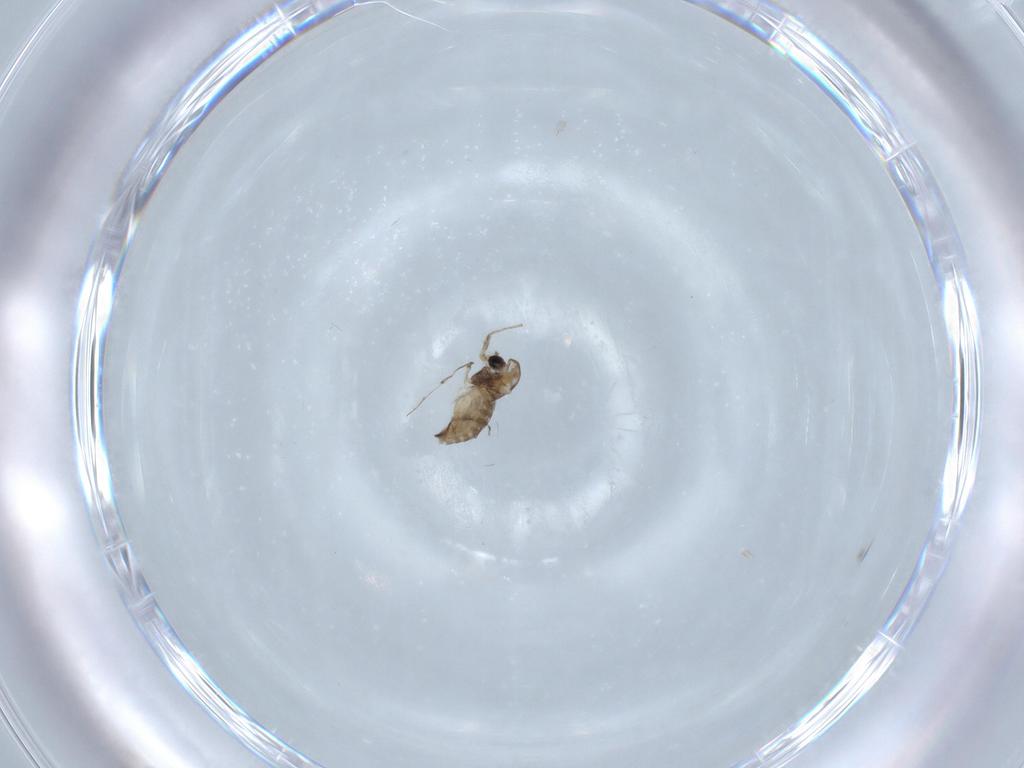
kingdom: Animalia
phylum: Arthropoda
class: Insecta
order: Diptera
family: Chironomidae
